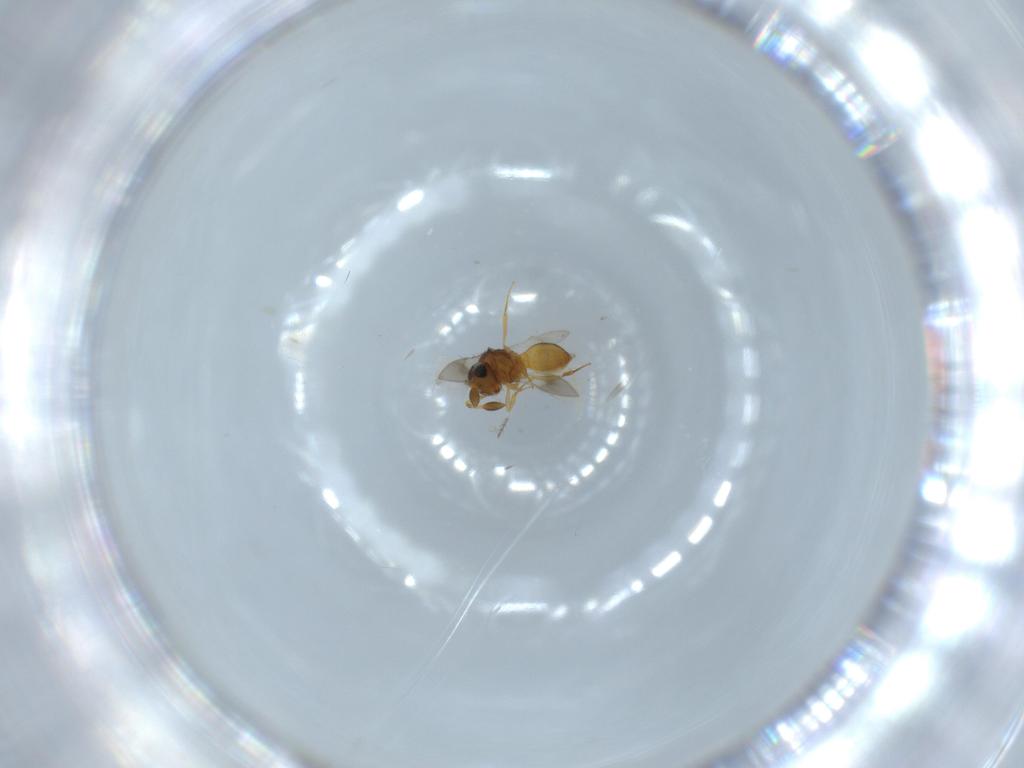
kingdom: Animalia
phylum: Arthropoda
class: Insecta
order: Hymenoptera
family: Scelionidae
